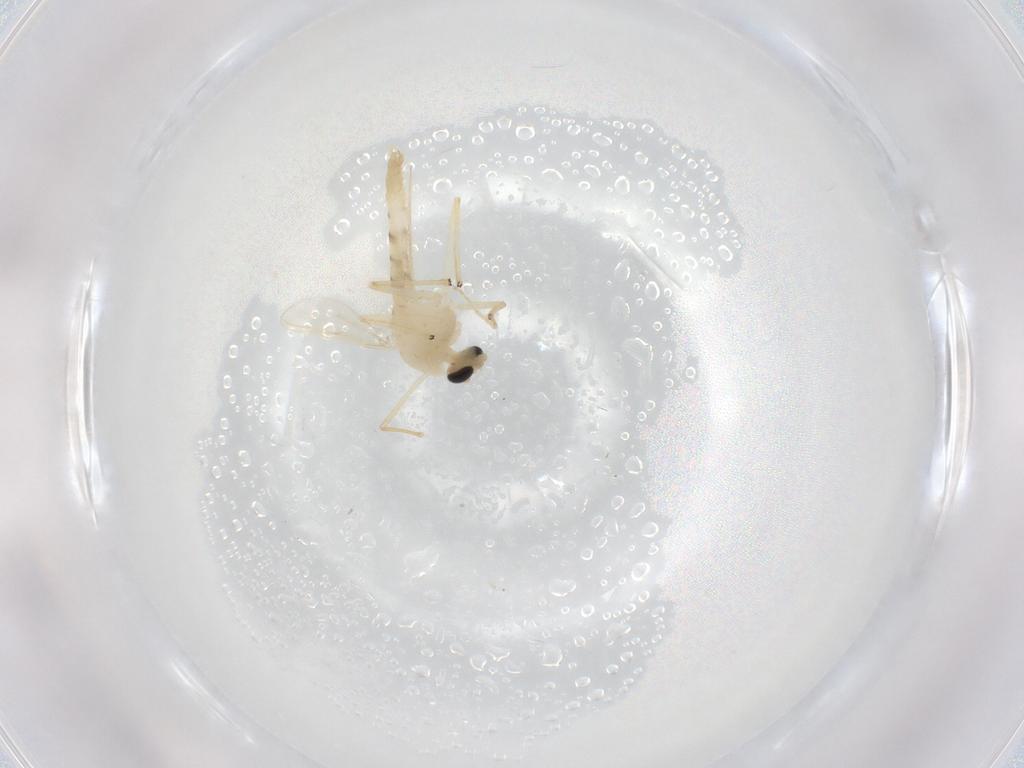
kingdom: Animalia
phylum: Arthropoda
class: Insecta
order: Diptera
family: Chironomidae
